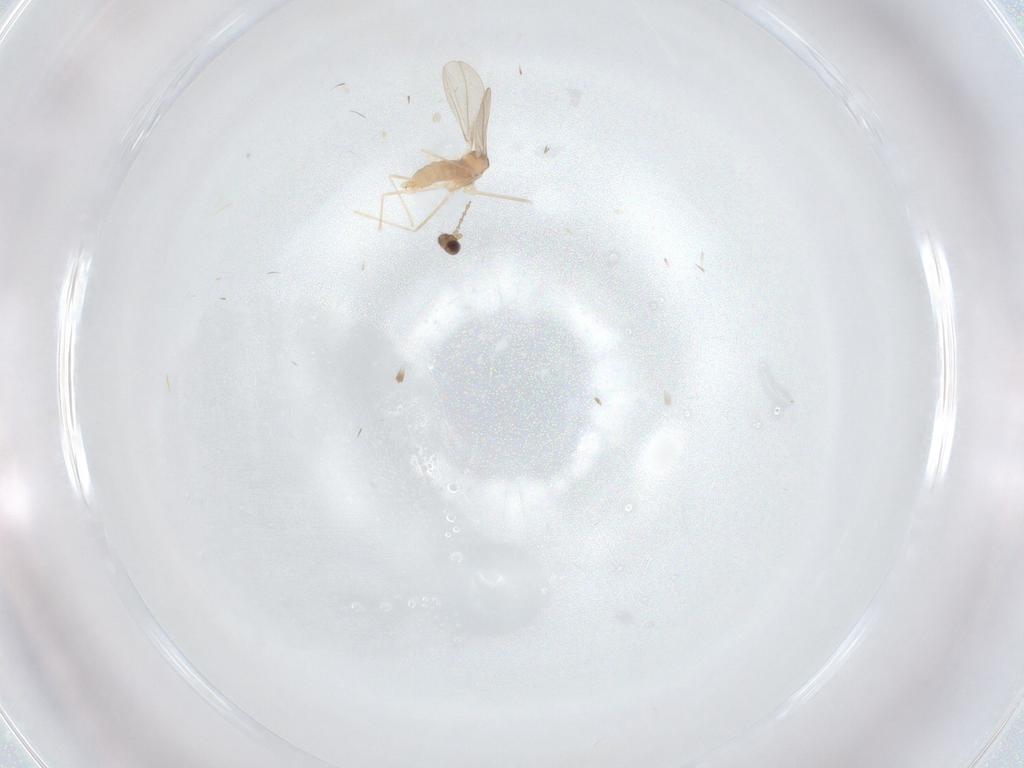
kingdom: Animalia
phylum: Arthropoda
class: Insecta
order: Diptera
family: Cecidomyiidae
